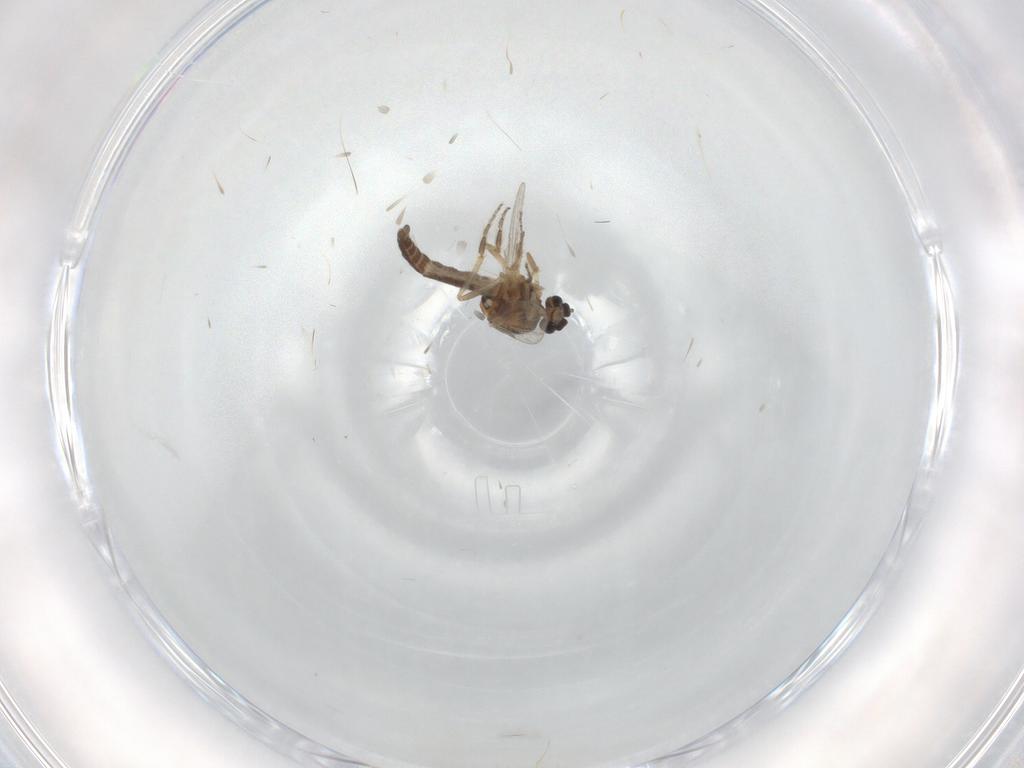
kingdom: Animalia
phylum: Arthropoda
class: Insecta
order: Diptera
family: Ceratopogonidae
